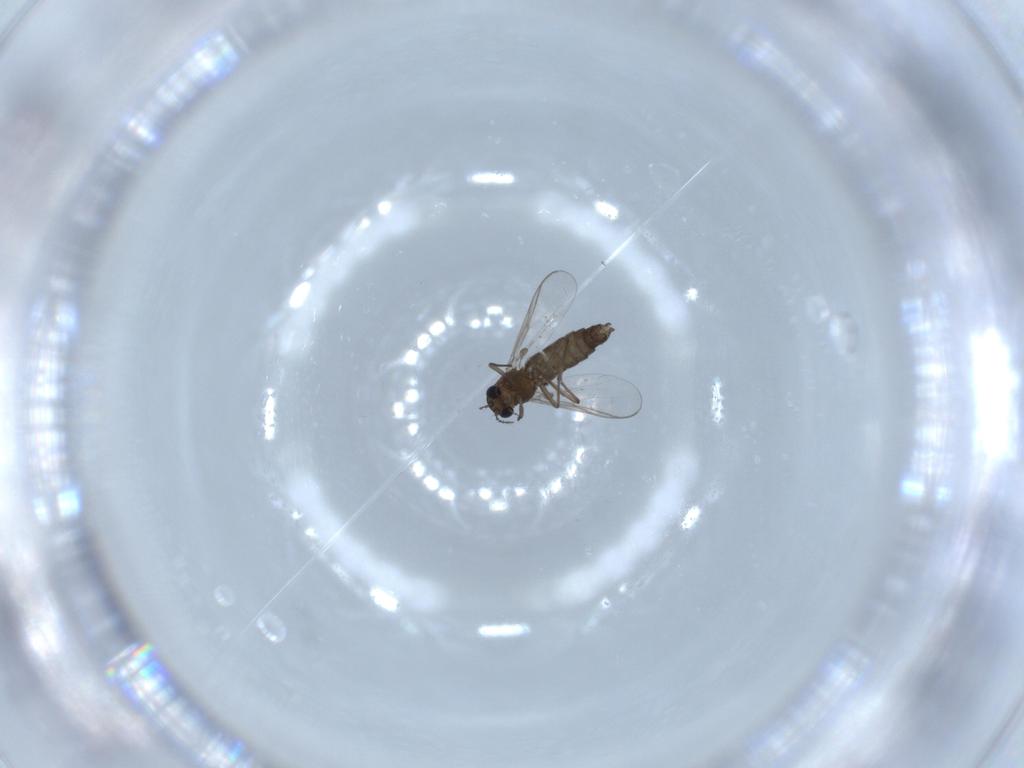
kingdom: Animalia
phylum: Arthropoda
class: Insecta
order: Diptera
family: Chironomidae
